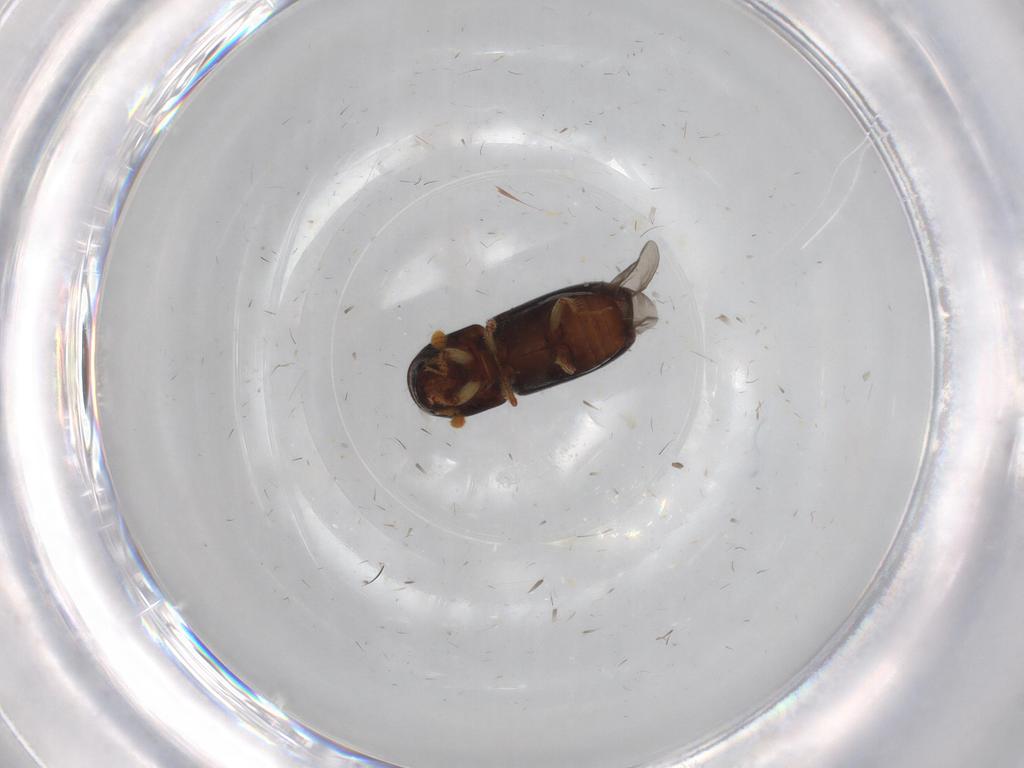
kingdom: Animalia
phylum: Arthropoda
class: Insecta
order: Coleoptera
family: Curculionidae
